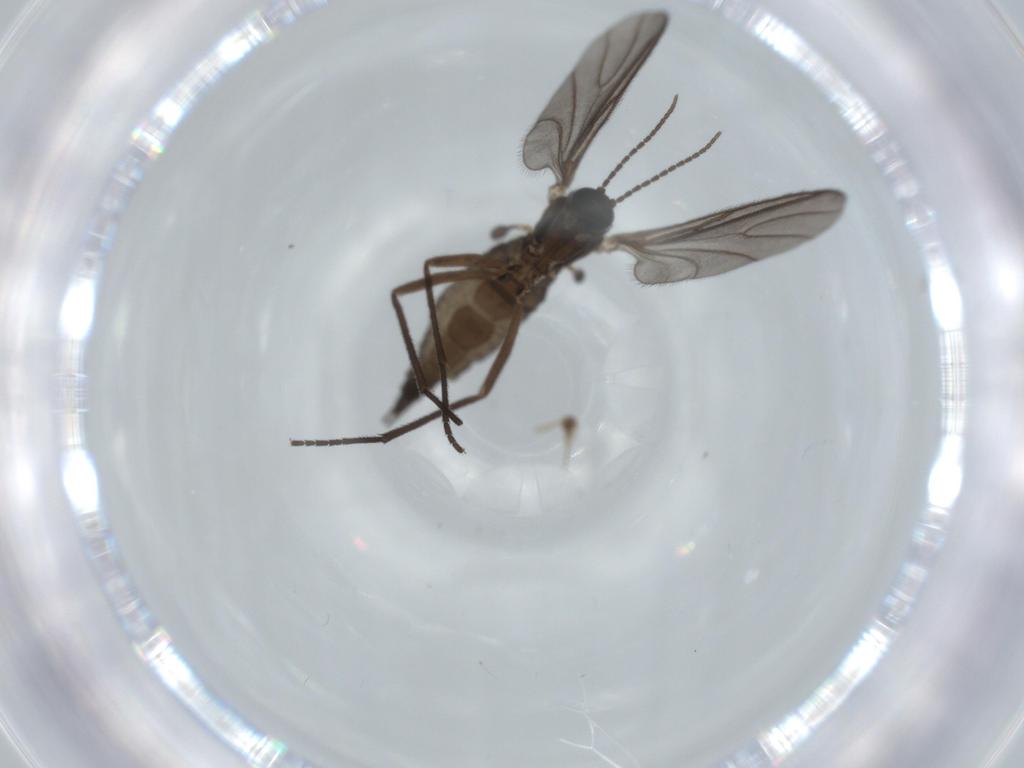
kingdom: Animalia
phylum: Arthropoda
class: Insecta
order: Diptera
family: Sciaridae
